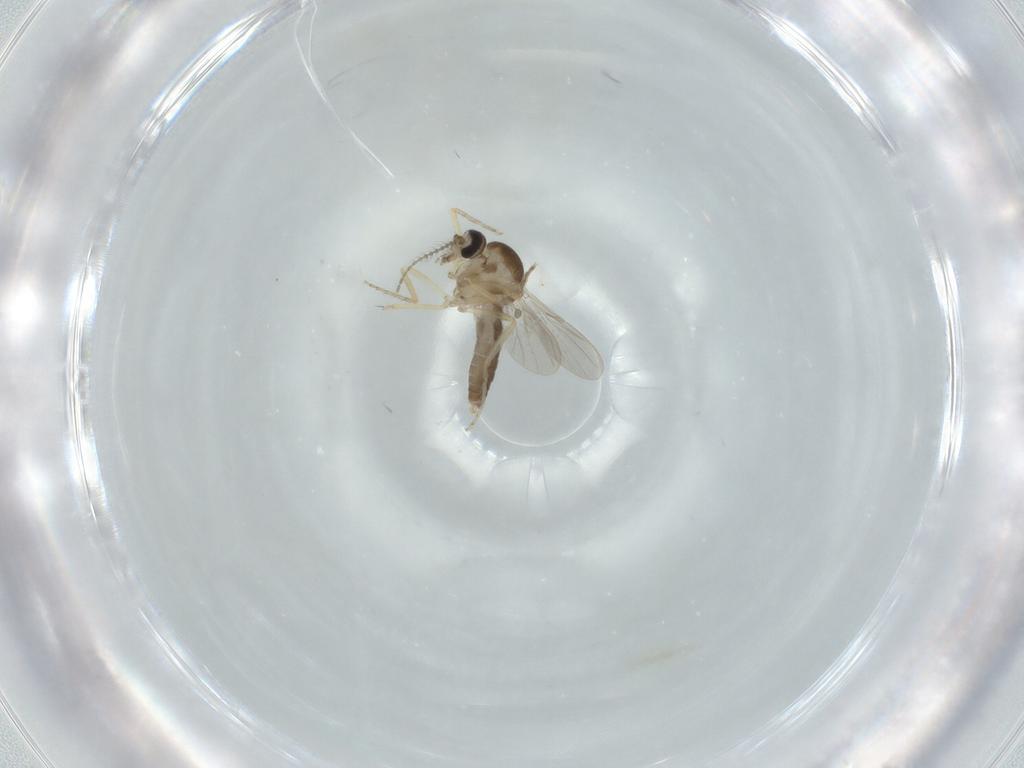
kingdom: Animalia
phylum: Arthropoda
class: Insecta
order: Diptera
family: Ceratopogonidae
